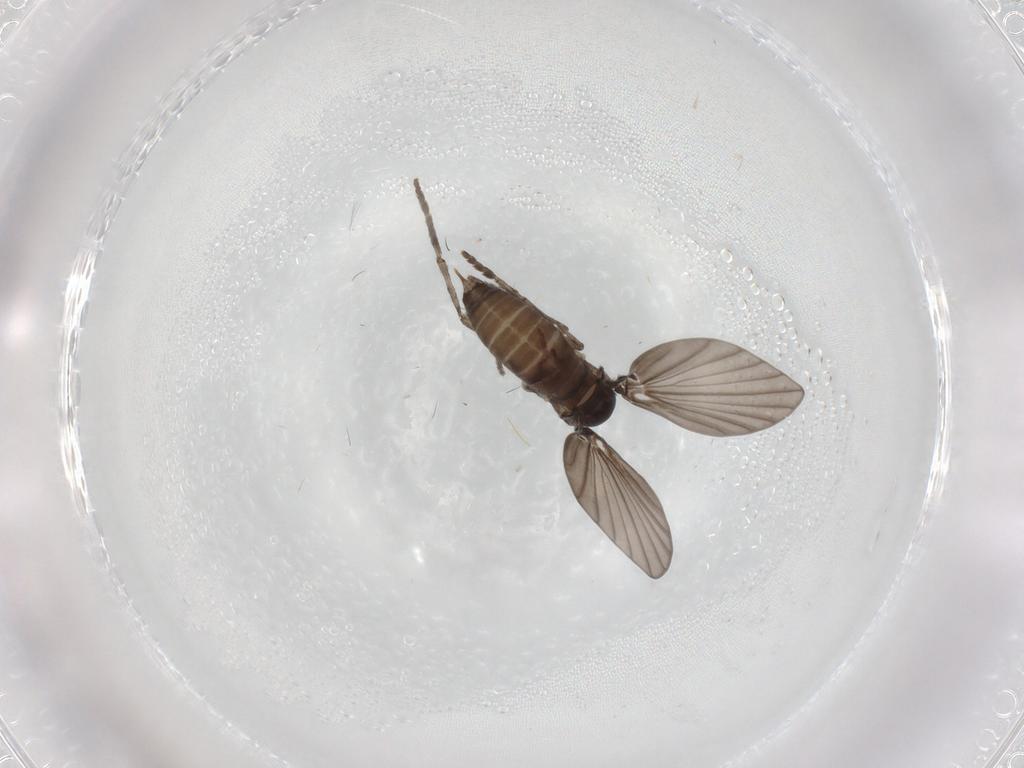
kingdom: Animalia
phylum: Arthropoda
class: Insecta
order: Diptera
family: Psychodidae
